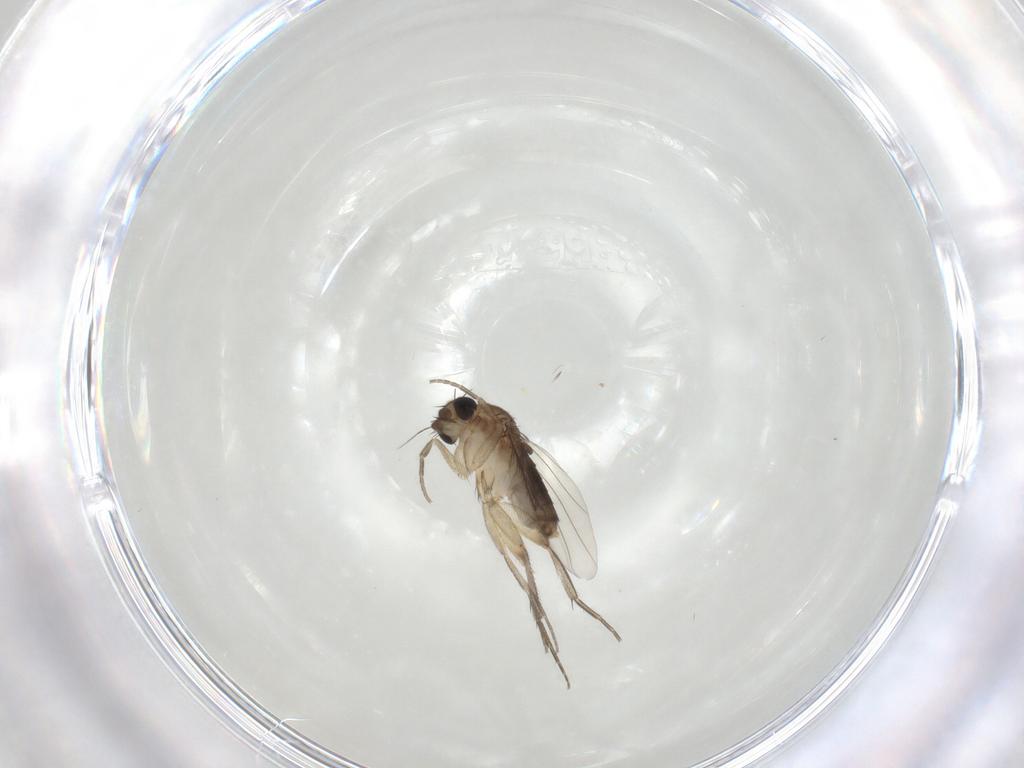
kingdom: Animalia
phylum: Arthropoda
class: Insecta
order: Diptera
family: Phoridae
